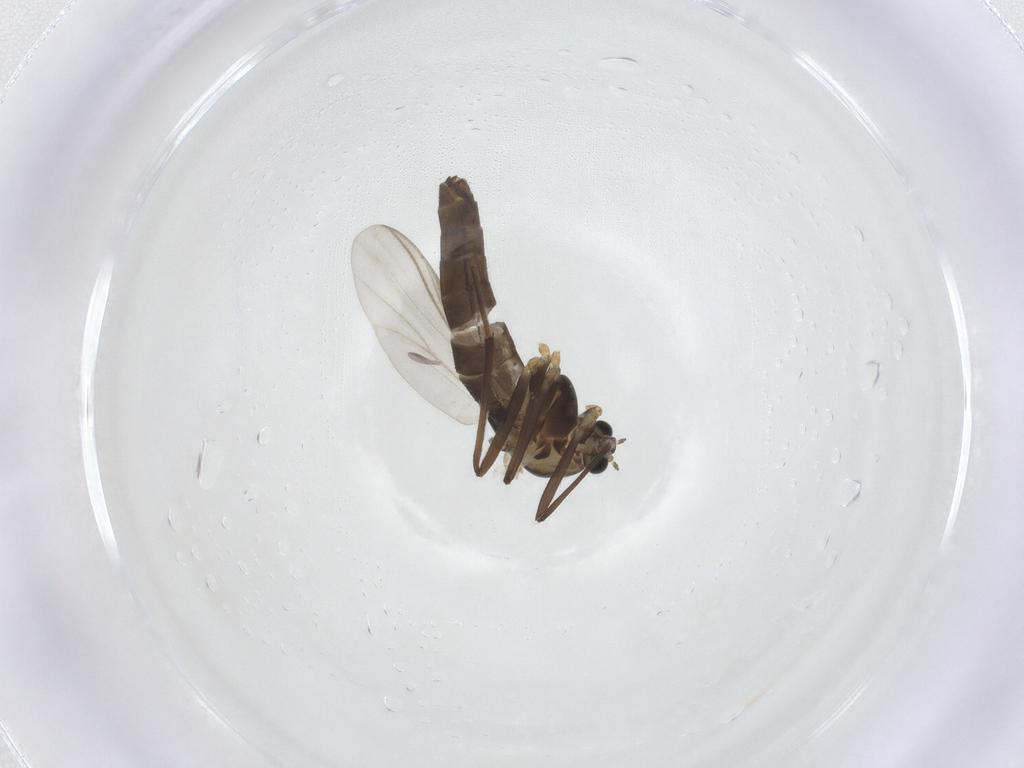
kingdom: Animalia
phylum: Arthropoda
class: Insecta
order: Diptera
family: Chironomidae
